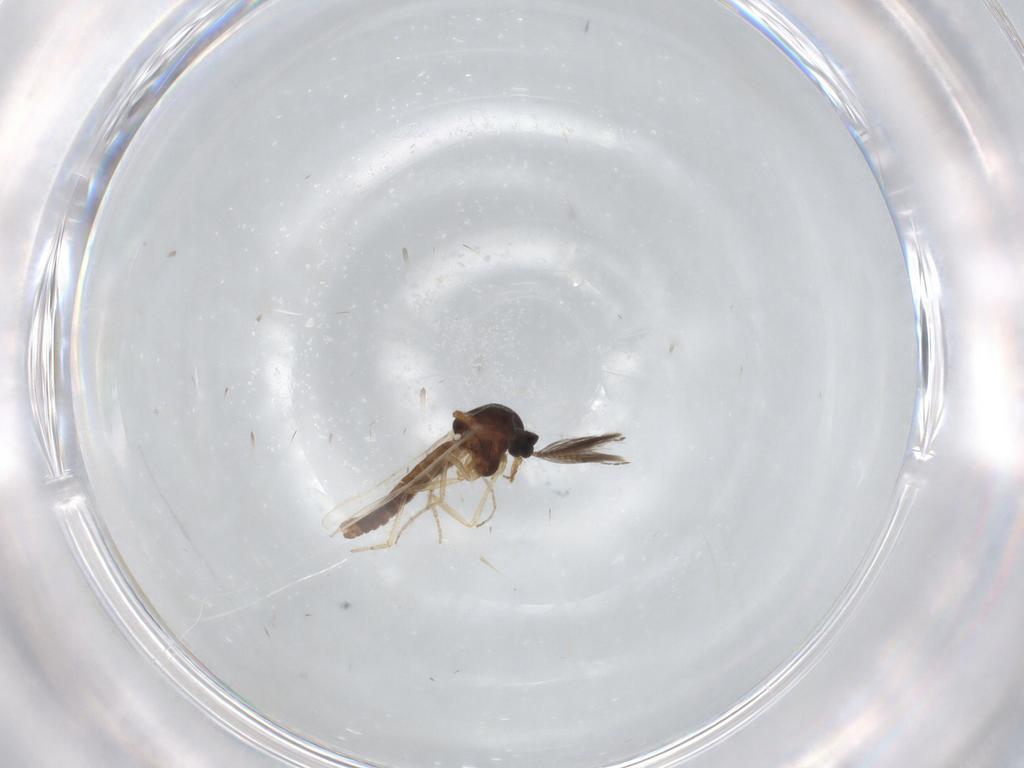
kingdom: Animalia
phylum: Arthropoda
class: Insecta
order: Diptera
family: Ceratopogonidae
